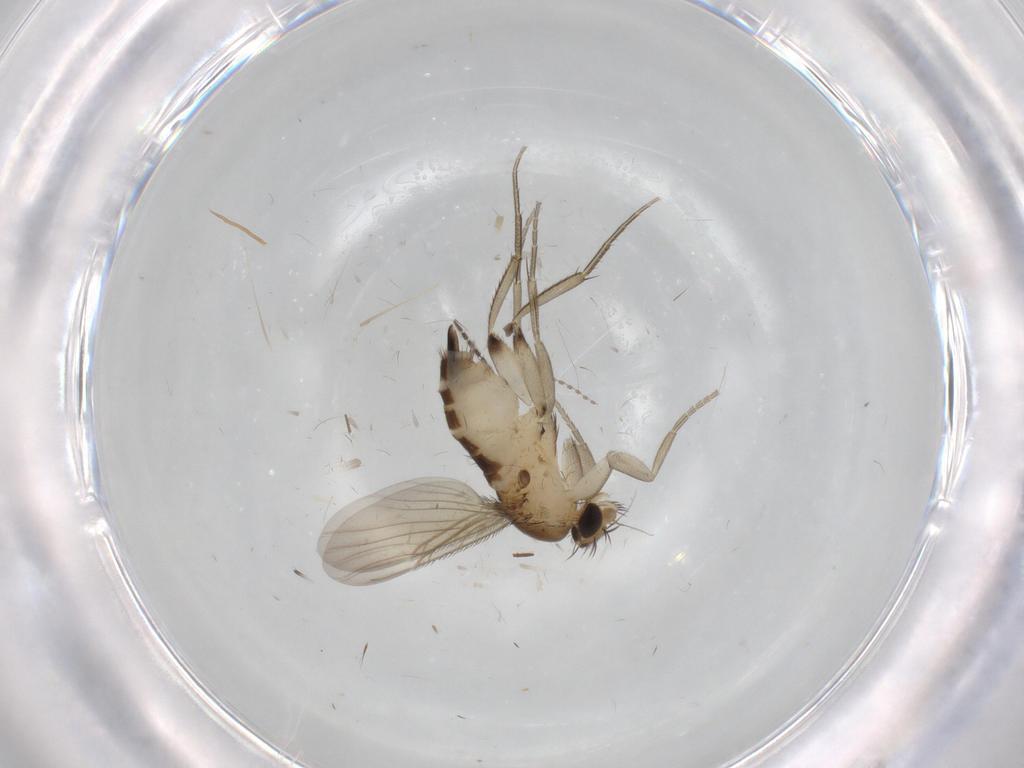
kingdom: Animalia
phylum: Arthropoda
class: Insecta
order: Diptera
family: Phoridae
